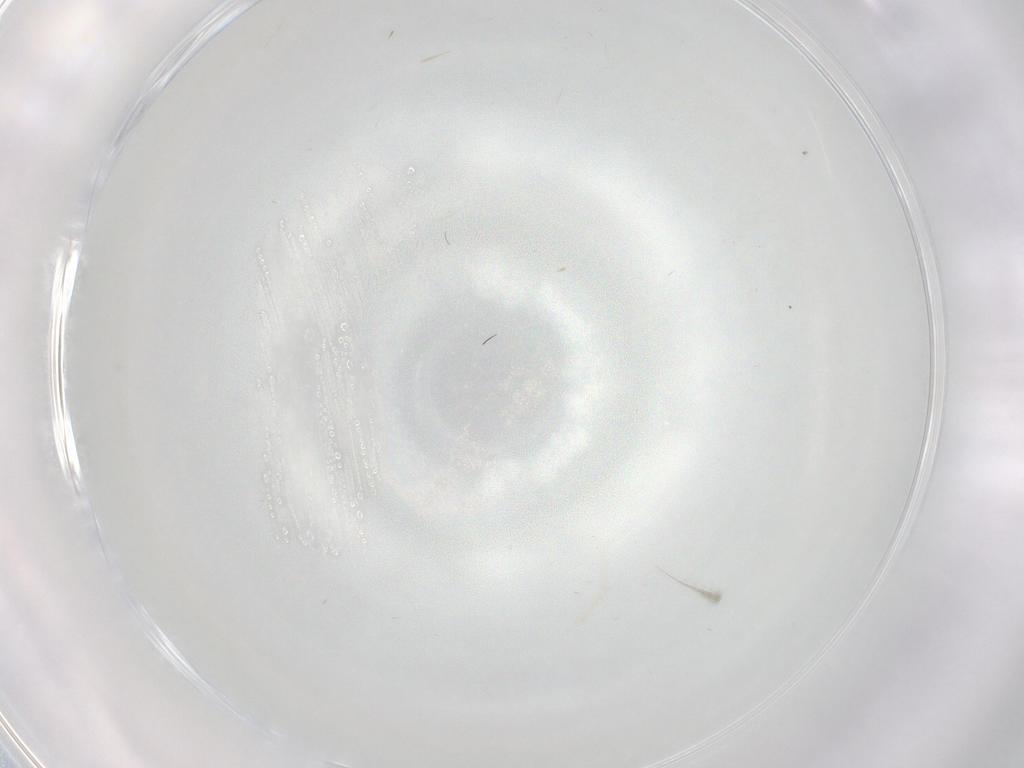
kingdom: Animalia
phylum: Arthropoda
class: Insecta
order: Diptera
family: Cecidomyiidae
